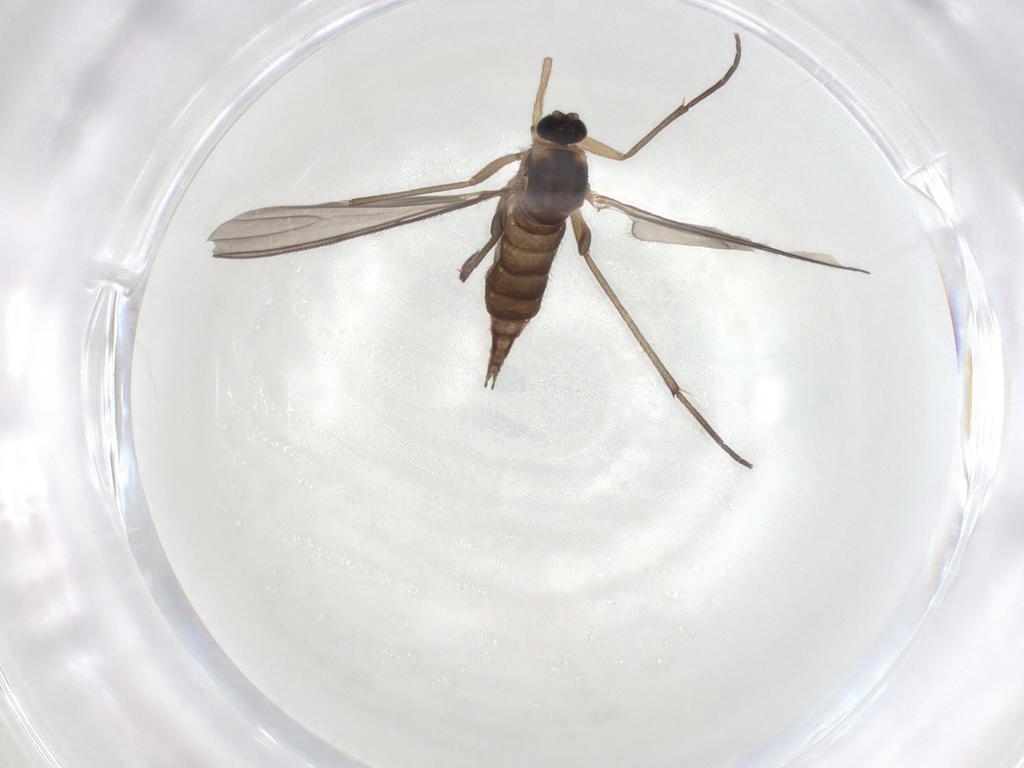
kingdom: Animalia
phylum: Arthropoda
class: Insecta
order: Diptera
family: Sciaridae
